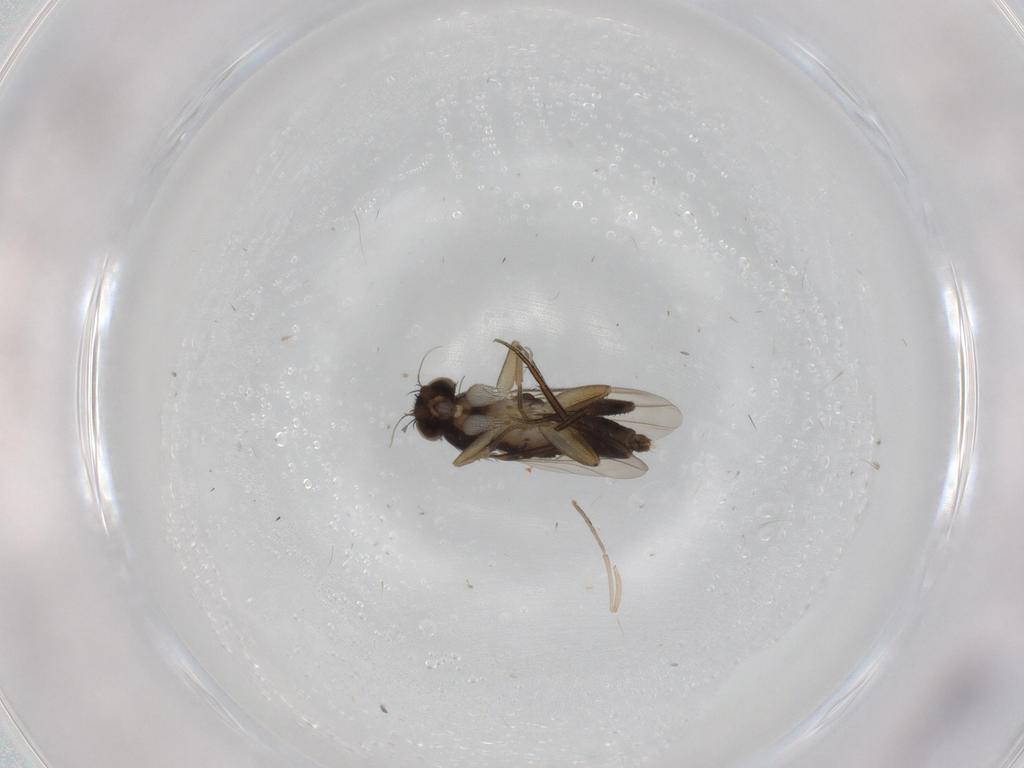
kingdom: Animalia
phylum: Arthropoda
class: Insecta
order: Diptera
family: Phoridae
